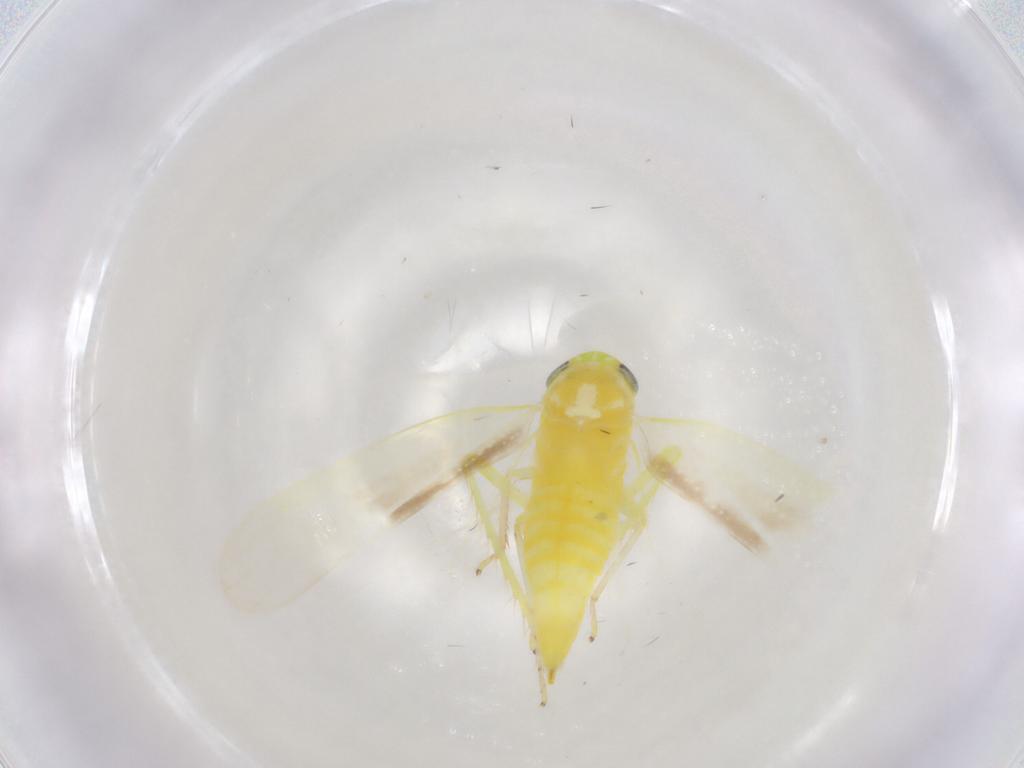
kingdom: Animalia
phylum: Arthropoda
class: Insecta
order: Hemiptera
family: Cicadellidae
